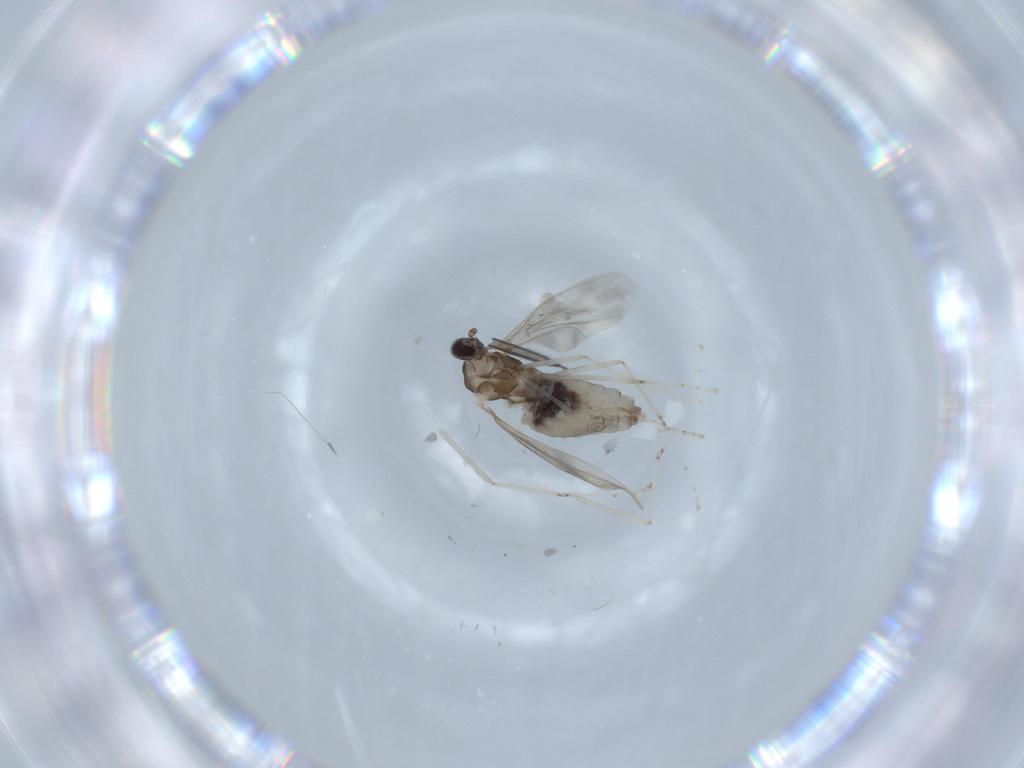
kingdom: Animalia
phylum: Arthropoda
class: Insecta
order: Diptera
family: Cecidomyiidae
